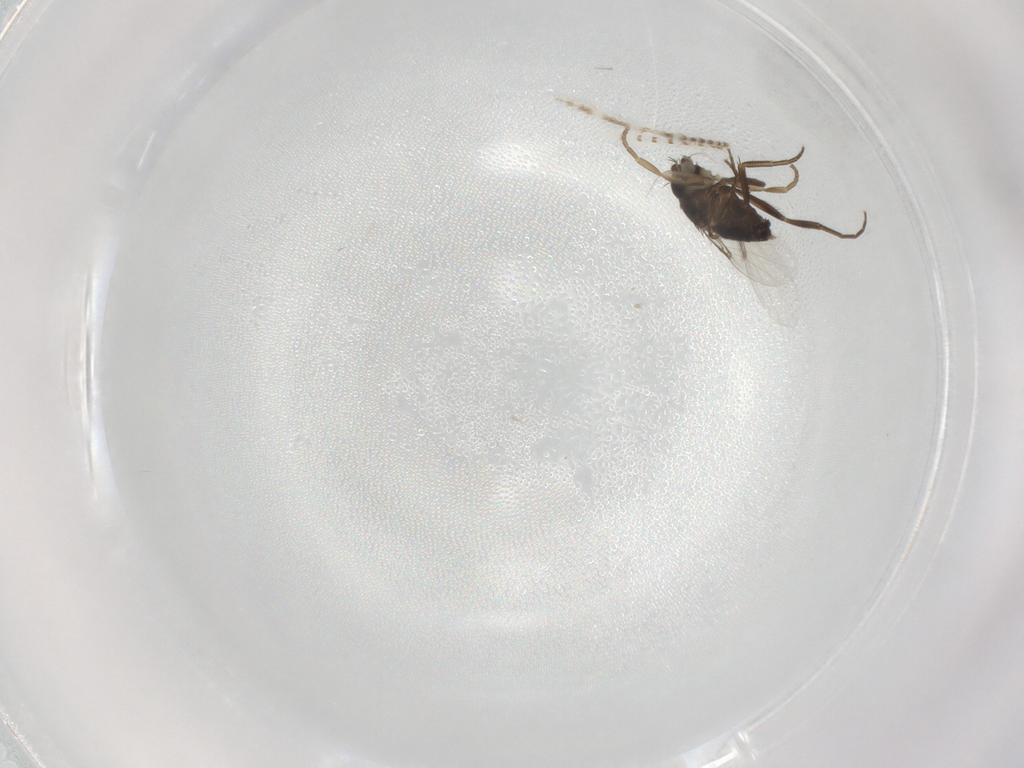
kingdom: Animalia
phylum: Arthropoda
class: Insecta
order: Diptera
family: Phoridae
